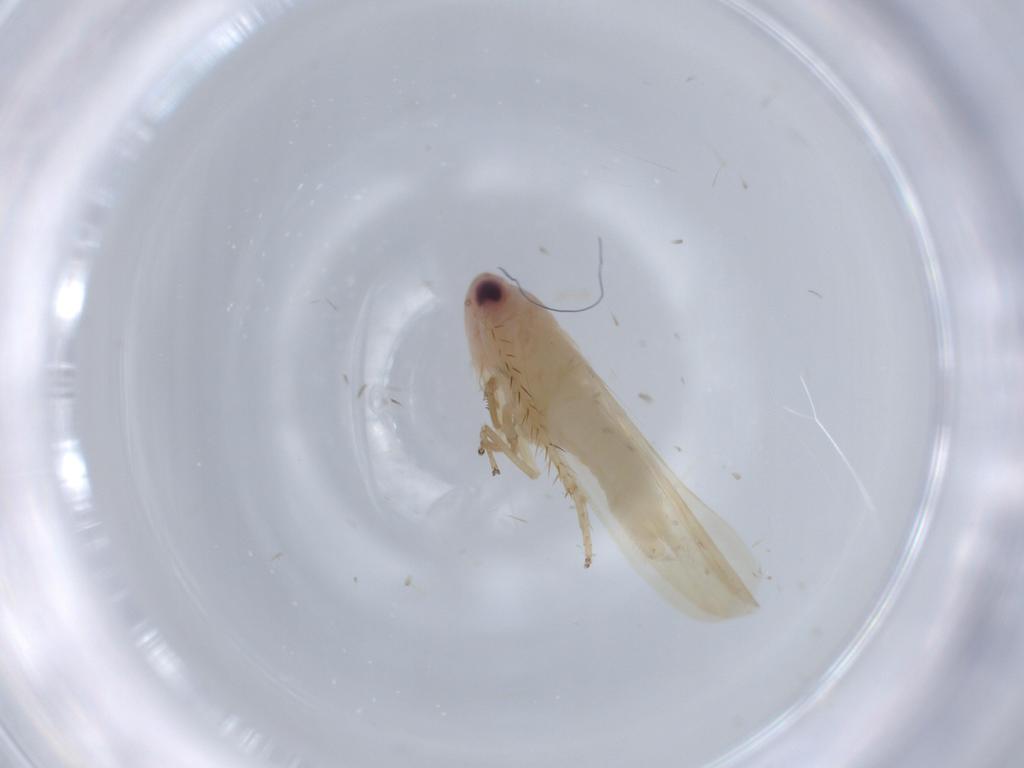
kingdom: Animalia
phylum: Arthropoda
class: Insecta
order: Hemiptera
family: Cicadellidae
